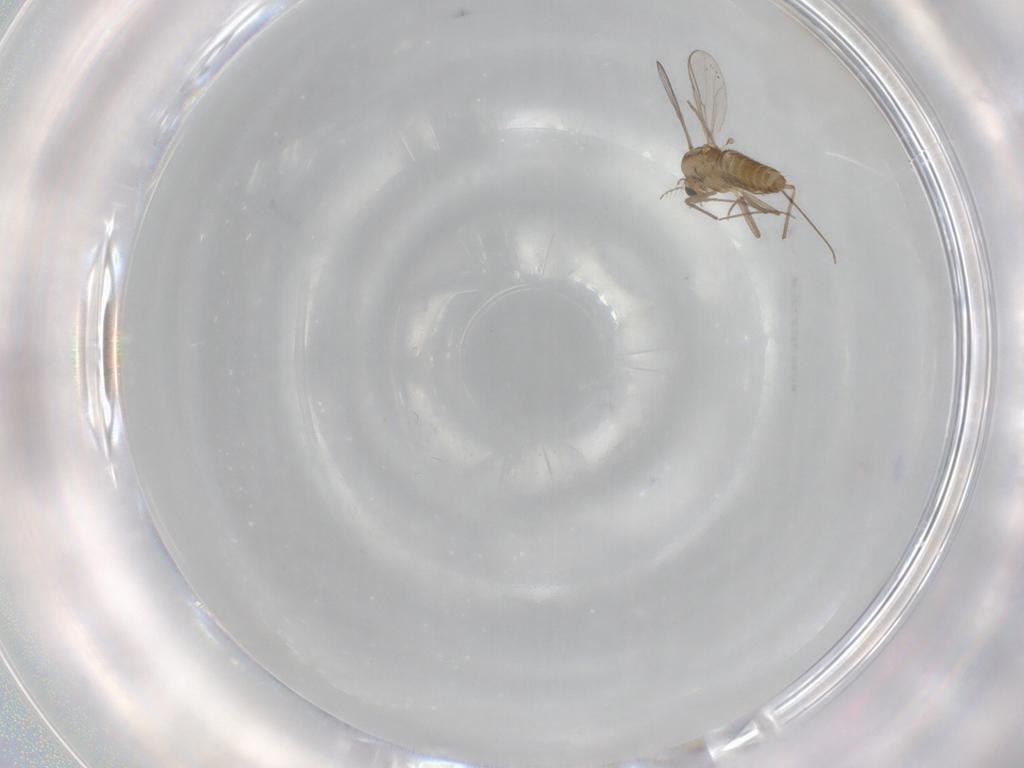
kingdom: Animalia
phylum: Arthropoda
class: Insecta
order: Diptera
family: Chironomidae
